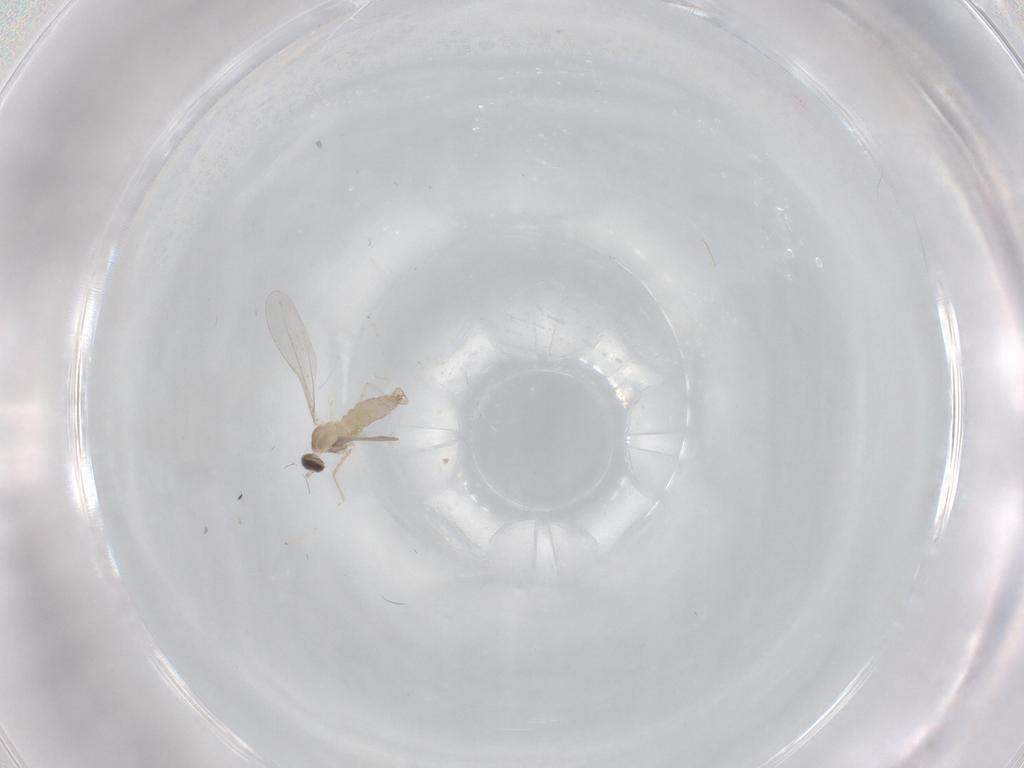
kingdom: Animalia
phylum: Arthropoda
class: Insecta
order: Diptera
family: Cecidomyiidae
